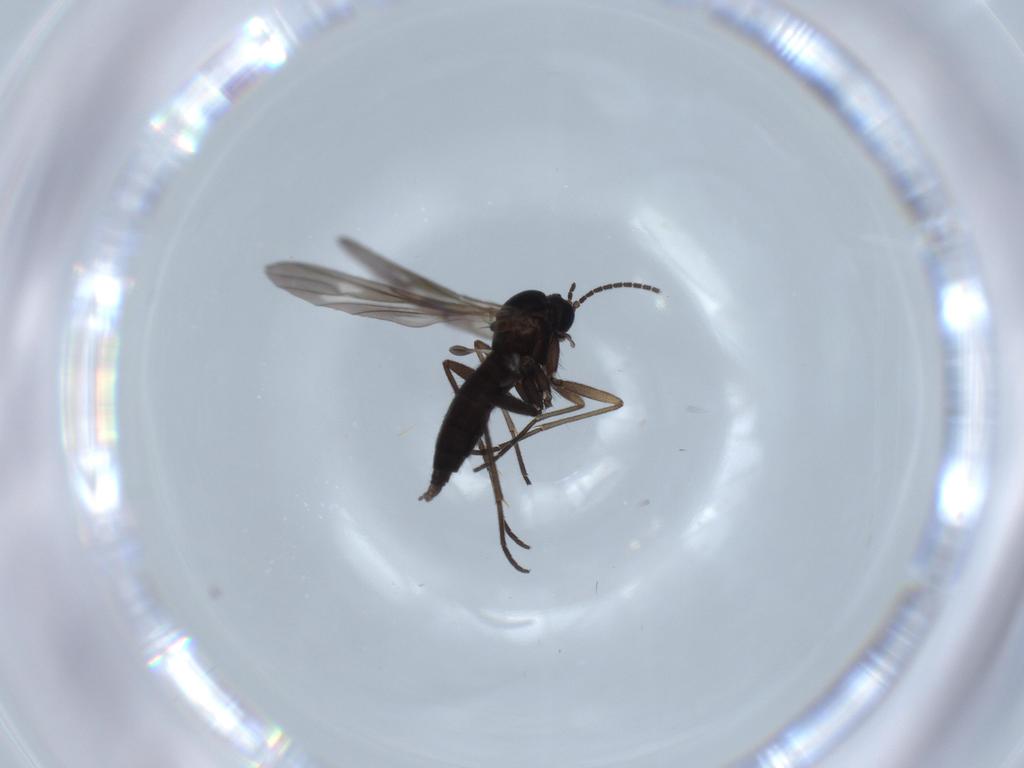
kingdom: Animalia
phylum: Arthropoda
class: Insecta
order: Diptera
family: Sciaridae
